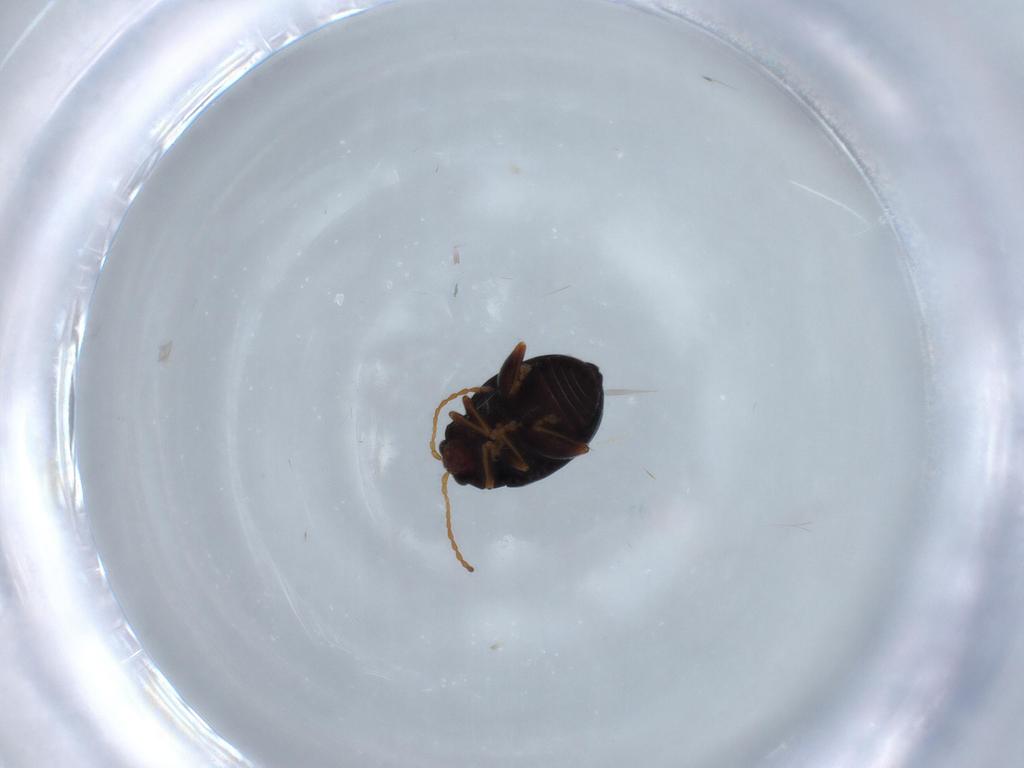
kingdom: Animalia
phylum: Arthropoda
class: Insecta
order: Coleoptera
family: Chrysomelidae
